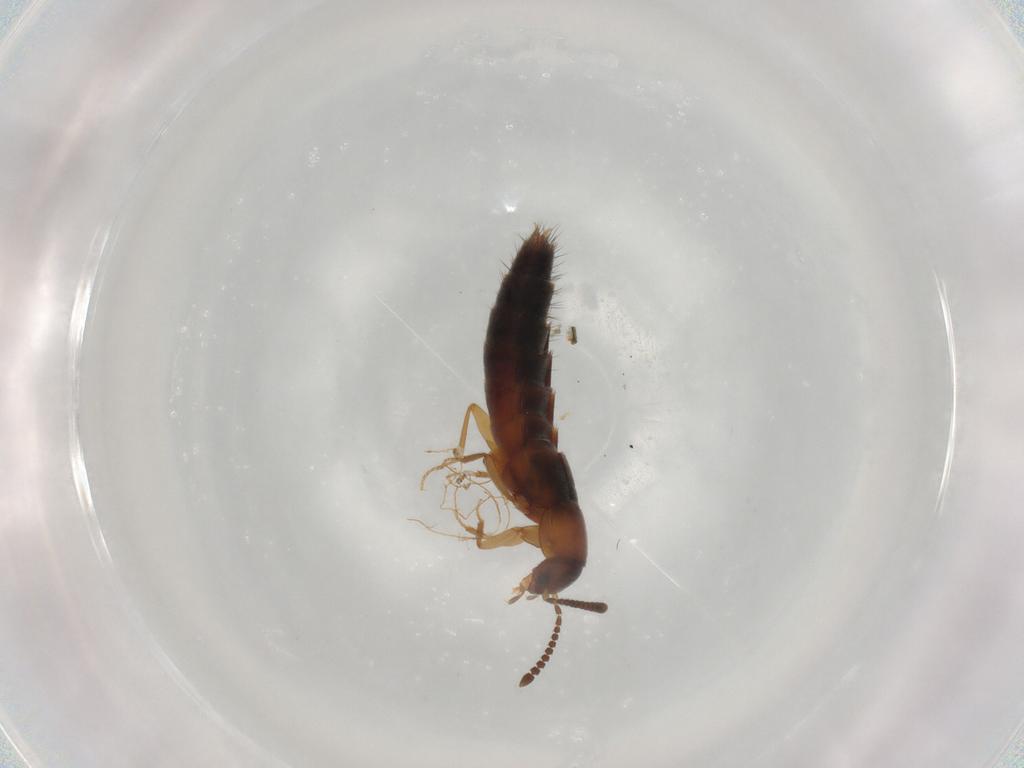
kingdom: Animalia
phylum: Arthropoda
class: Insecta
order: Coleoptera
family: Staphylinidae
